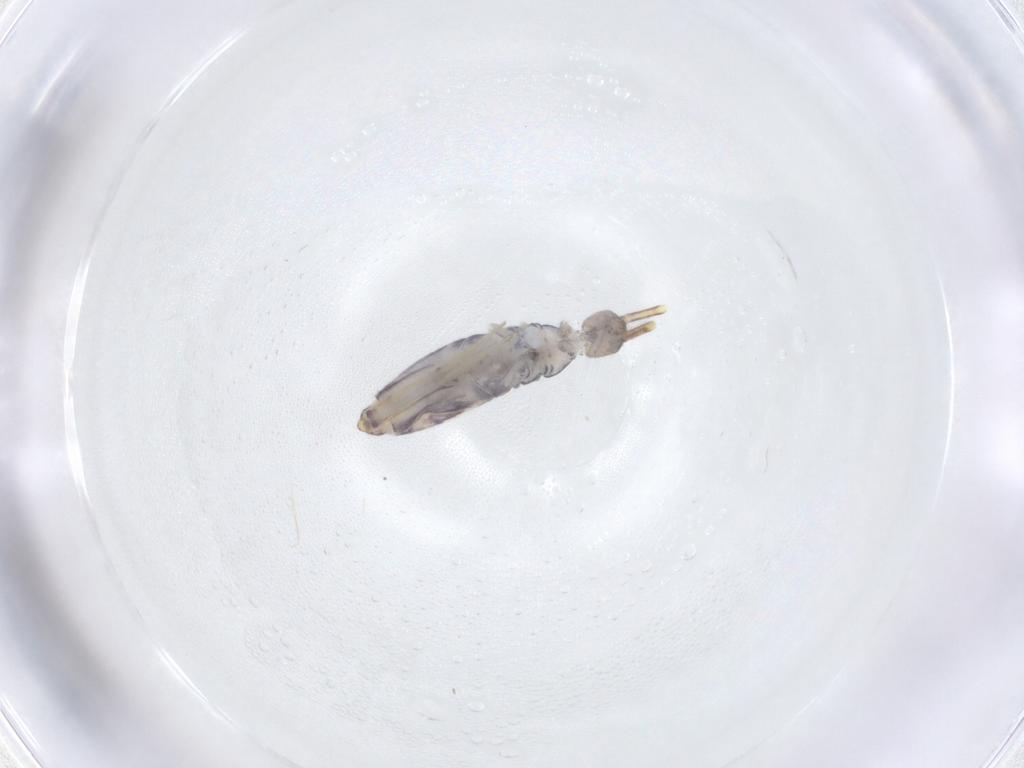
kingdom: Animalia
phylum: Arthropoda
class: Collembola
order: Entomobryomorpha
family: Entomobryidae
